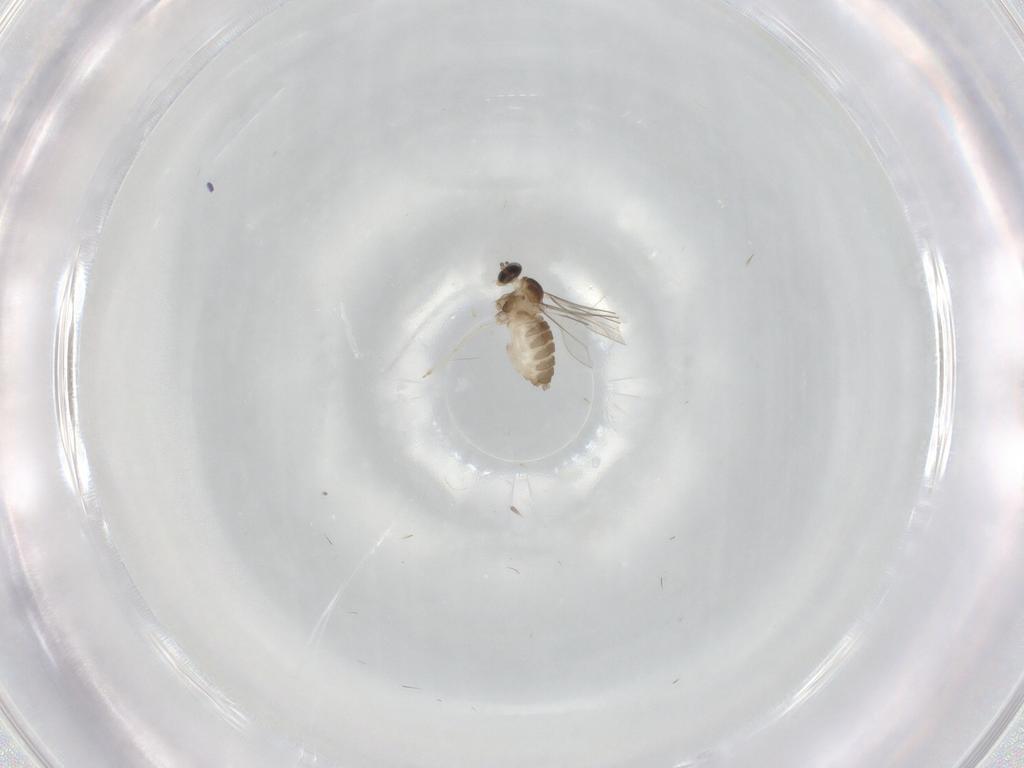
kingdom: Animalia
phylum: Arthropoda
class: Insecta
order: Diptera
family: Cecidomyiidae
